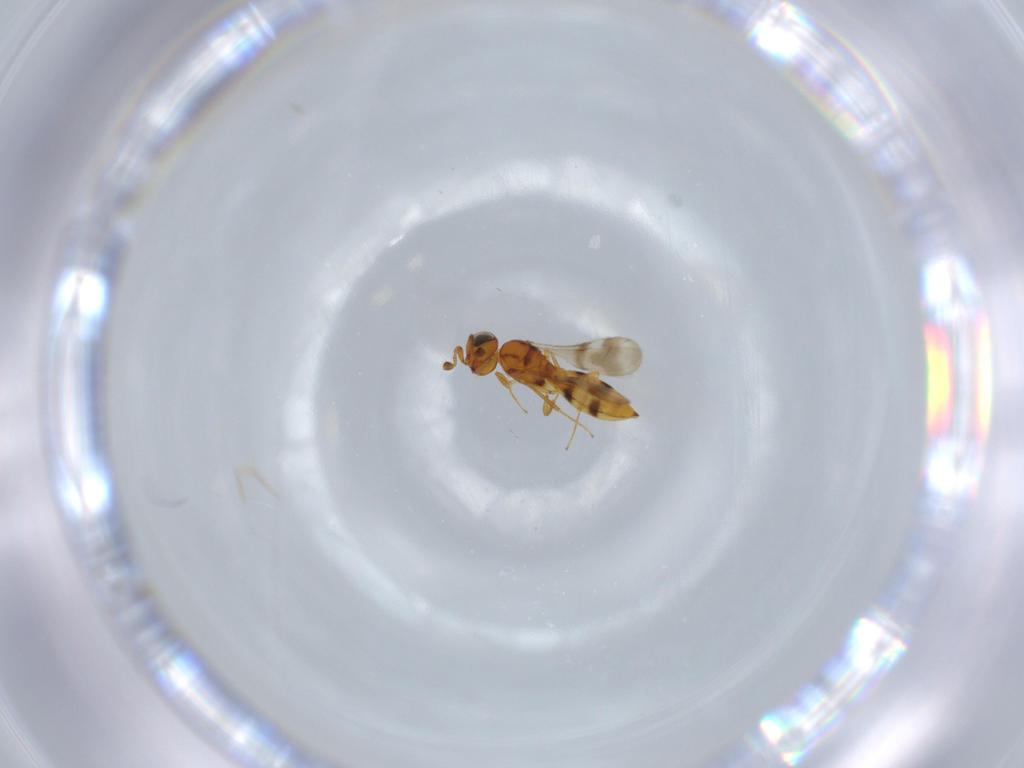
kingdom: Animalia
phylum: Arthropoda
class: Insecta
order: Hymenoptera
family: Scelionidae
